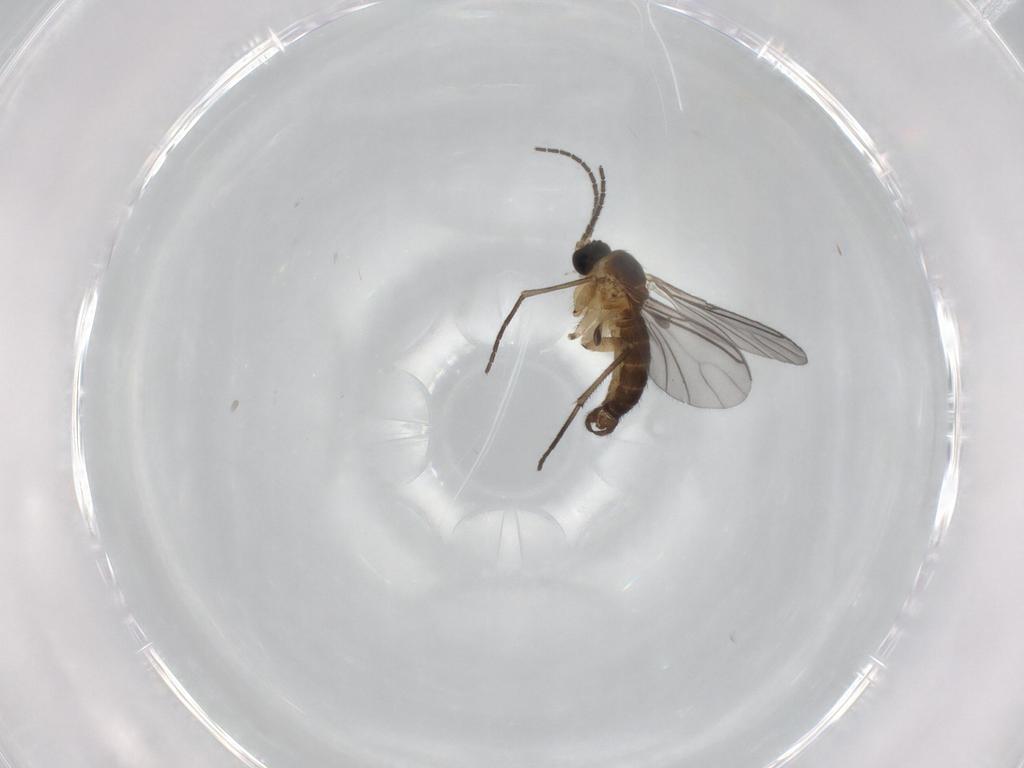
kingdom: Animalia
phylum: Arthropoda
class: Insecta
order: Diptera
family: Sciaridae
